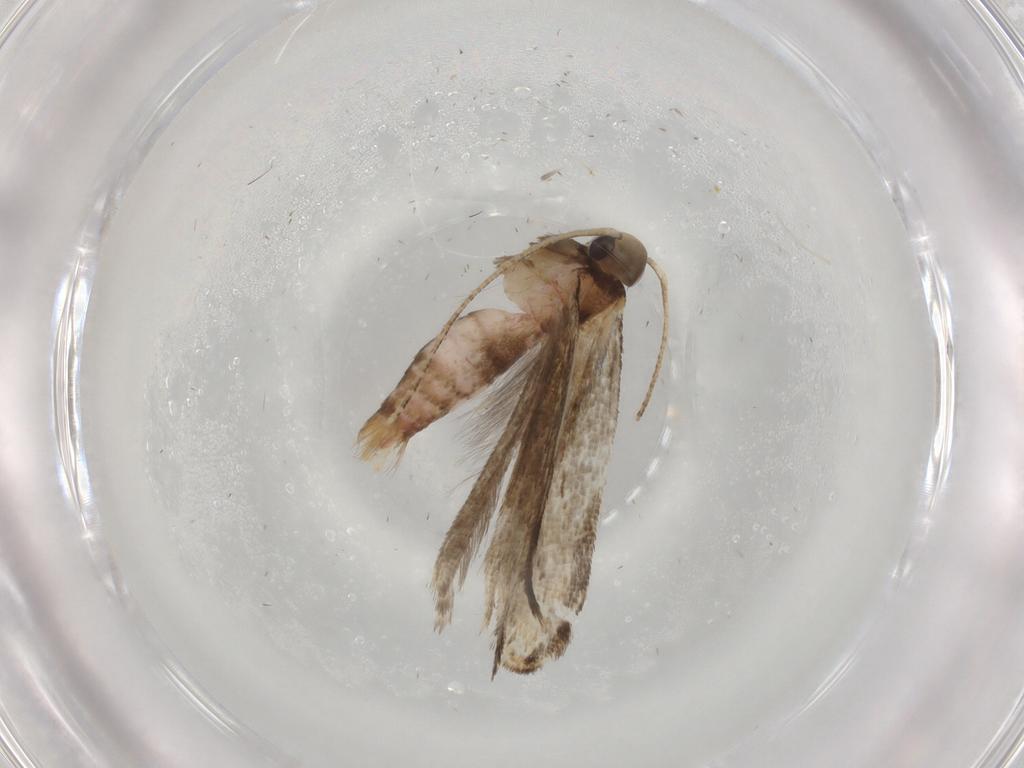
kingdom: Animalia
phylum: Arthropoda
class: Insecta
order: Lepidoptera
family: Gelechiidae
